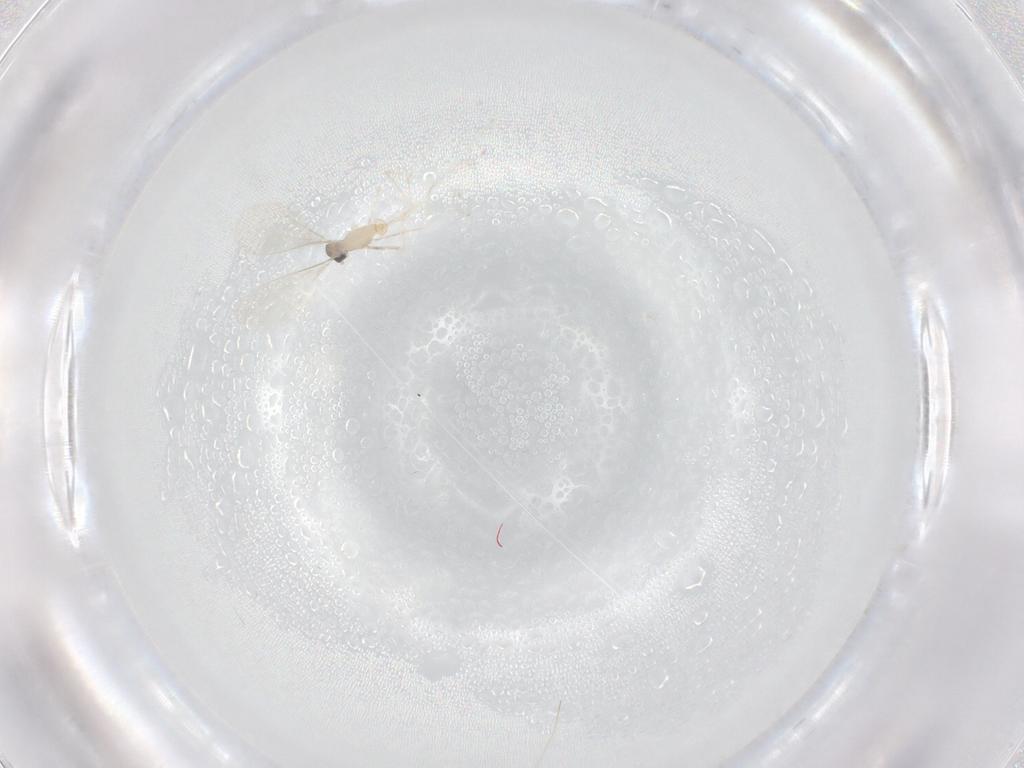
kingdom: Animalia
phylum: Arthropoda
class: Insecta
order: Diptera
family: Cecidomyiidae
